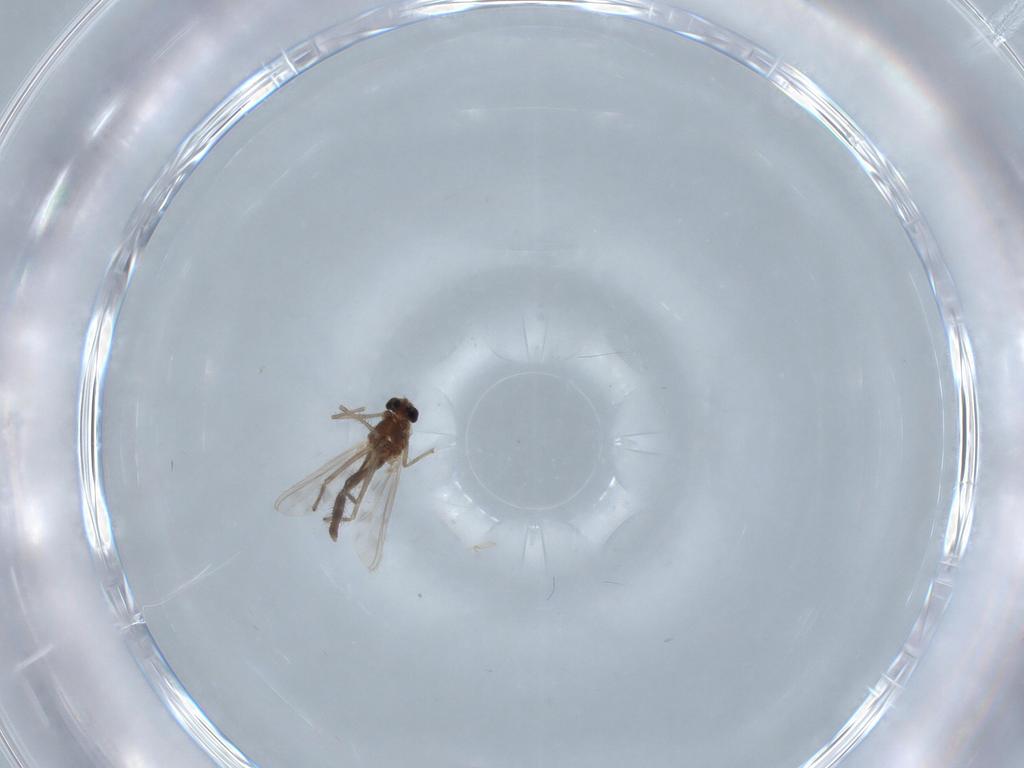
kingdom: Animalia
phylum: Arthropoda
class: Insecta
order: Diptera
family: Chironomidae
